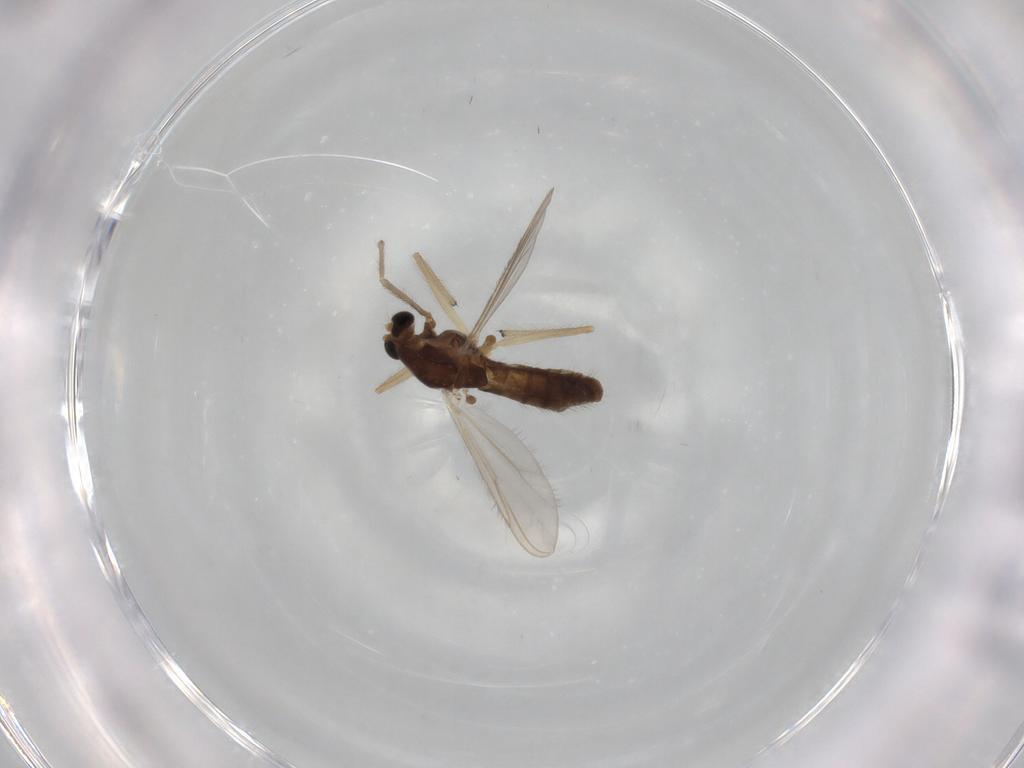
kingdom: Animalia
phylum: Arthropoda
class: Insecta
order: Diptera
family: Chironomidae
